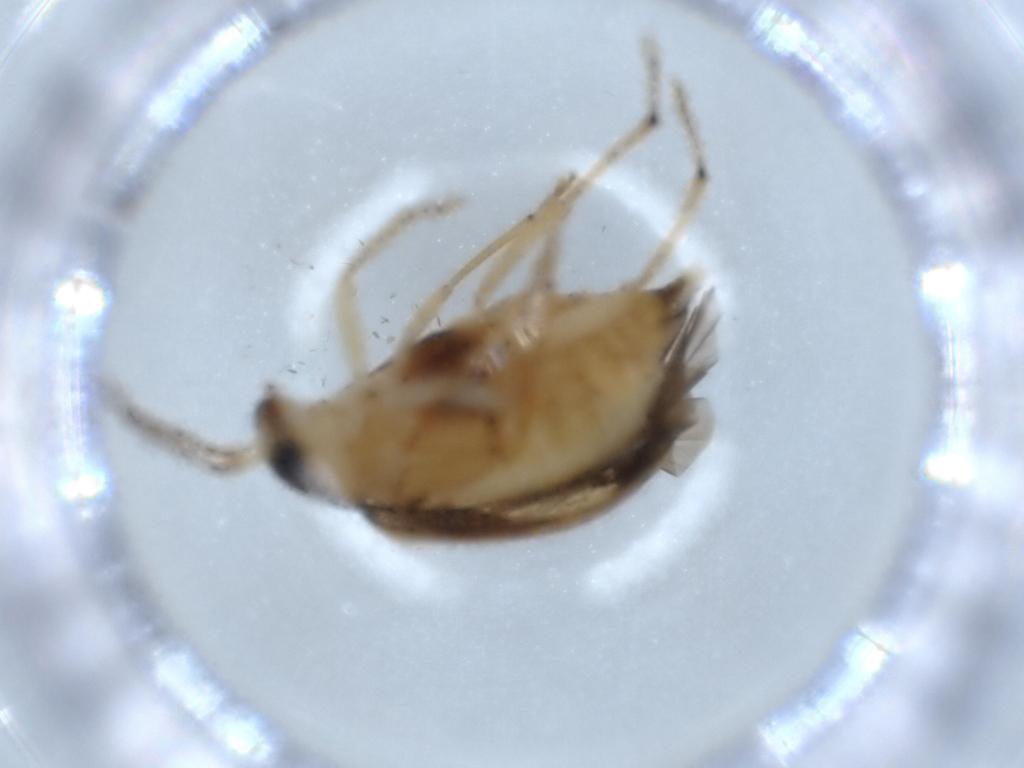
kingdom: Animalia
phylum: Arthropoda
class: Insecta
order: Coleoptera
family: Chrysomelidae
